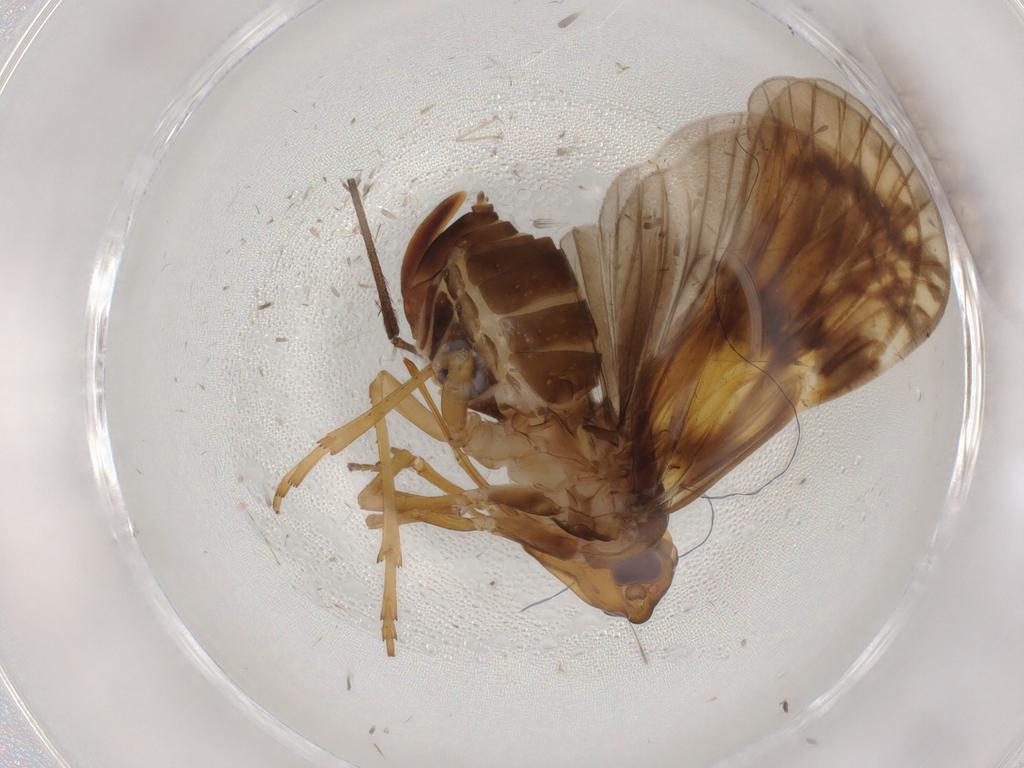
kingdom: Animalia
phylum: Arthropoda
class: Insecta
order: Hemiptera
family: Cixiidae
